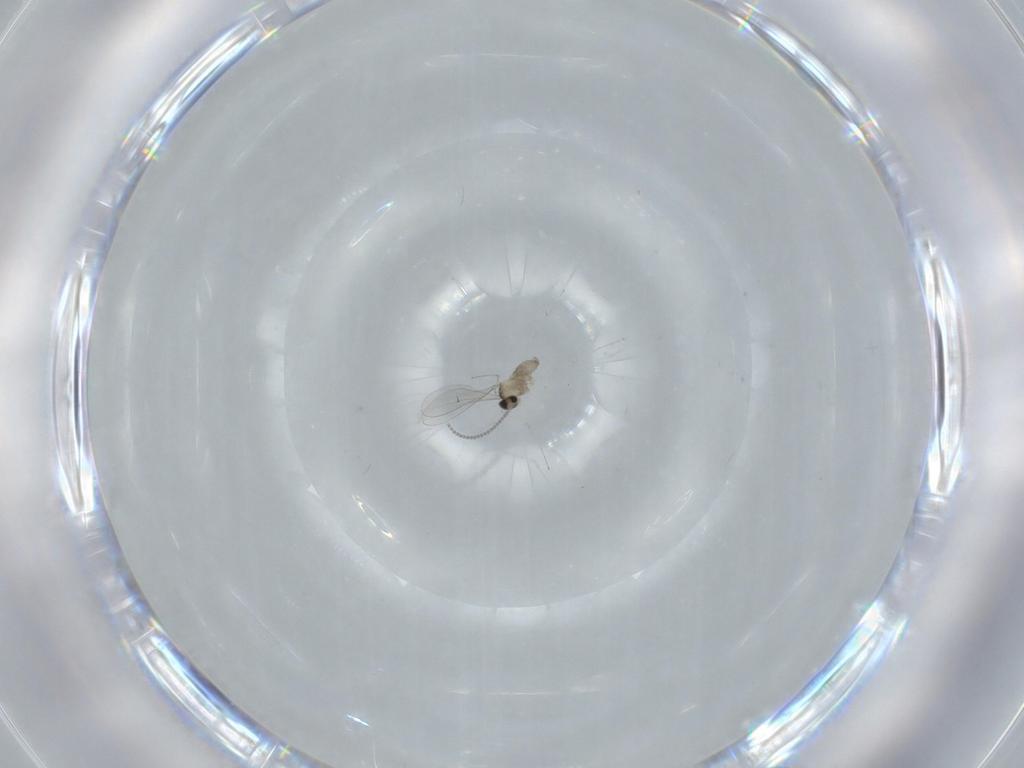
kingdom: Animalia
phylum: Arthropoda
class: Insecta
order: Diptera
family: Cecidomyiidae
